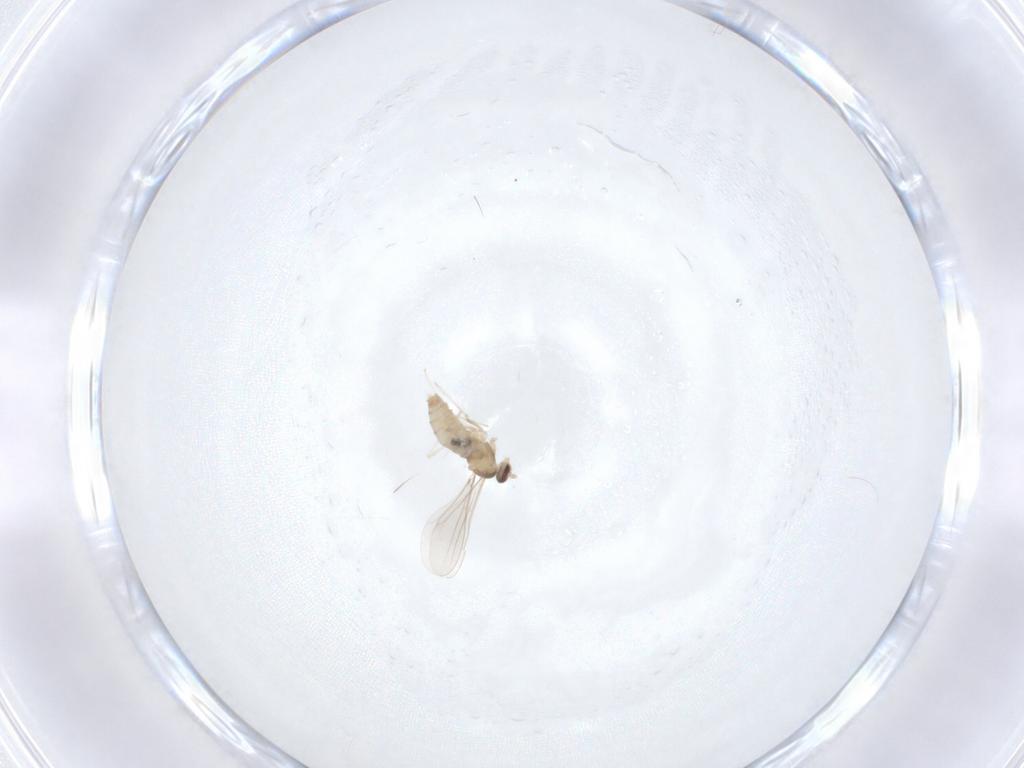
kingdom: Animalia
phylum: Arthropoda
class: Insecta
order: Diptera
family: Cecidomyiidae
